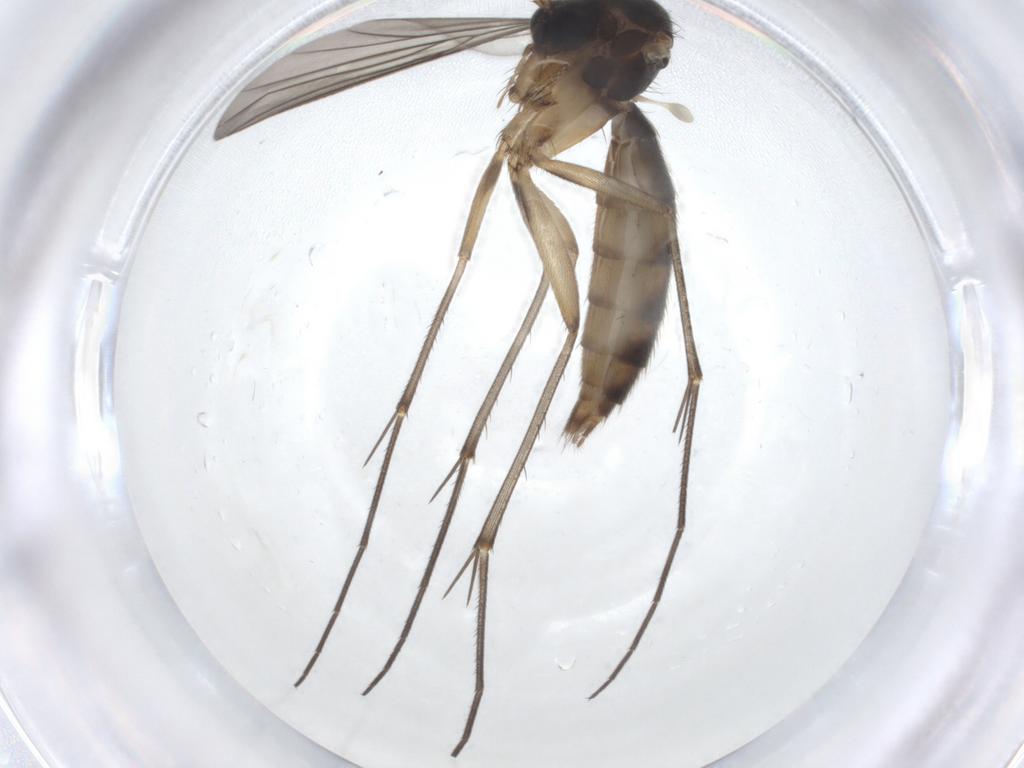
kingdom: Animalia
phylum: Arthropoda
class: Insecta
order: Diptera
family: Mycetophilidae
